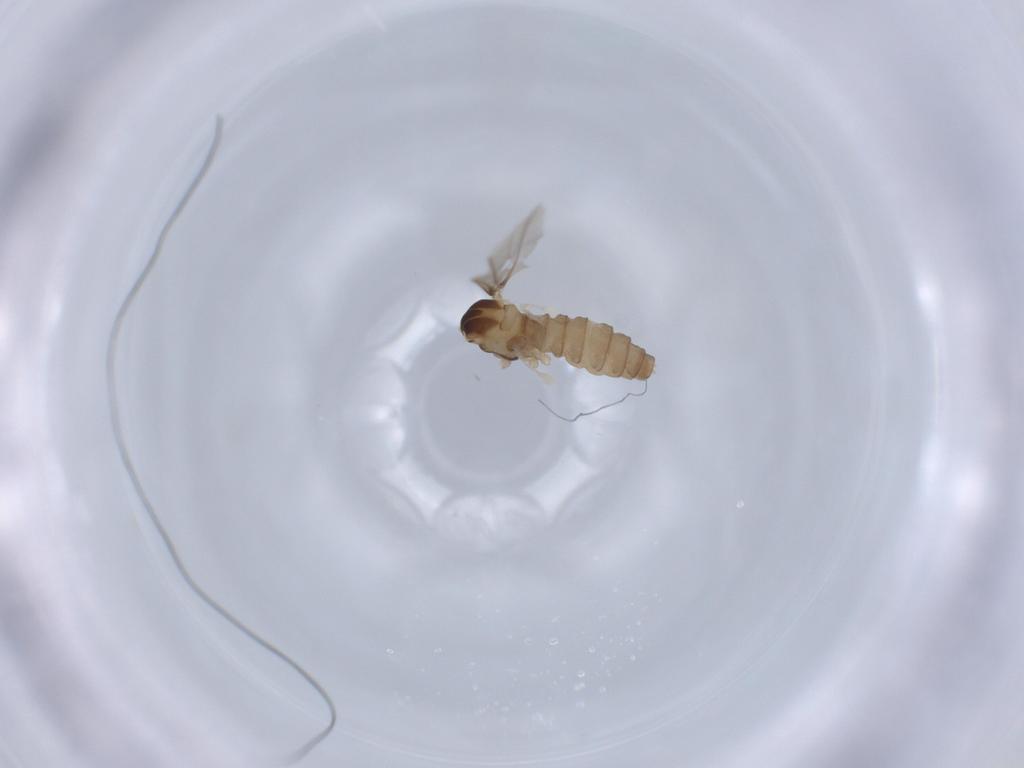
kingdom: Animalia
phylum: Arthropoda
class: Insecta
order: Diptera
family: Cecidomyiidae
